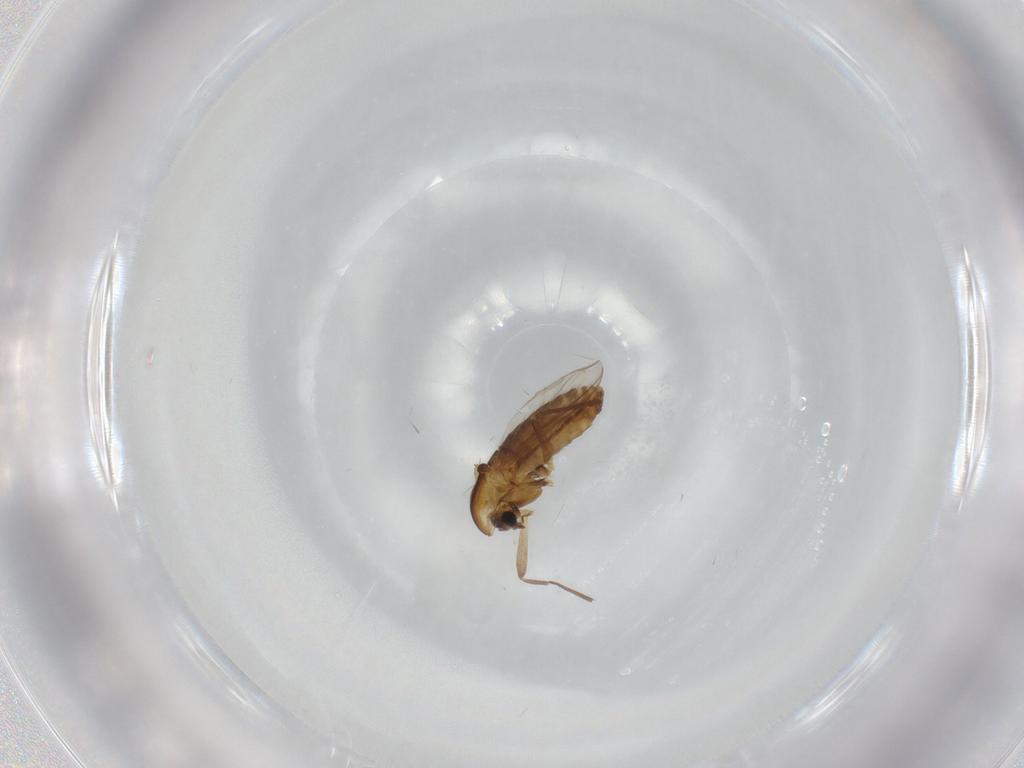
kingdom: Animalia
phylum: Arthropoda
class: Insecta
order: Diptera
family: Chironomidae
